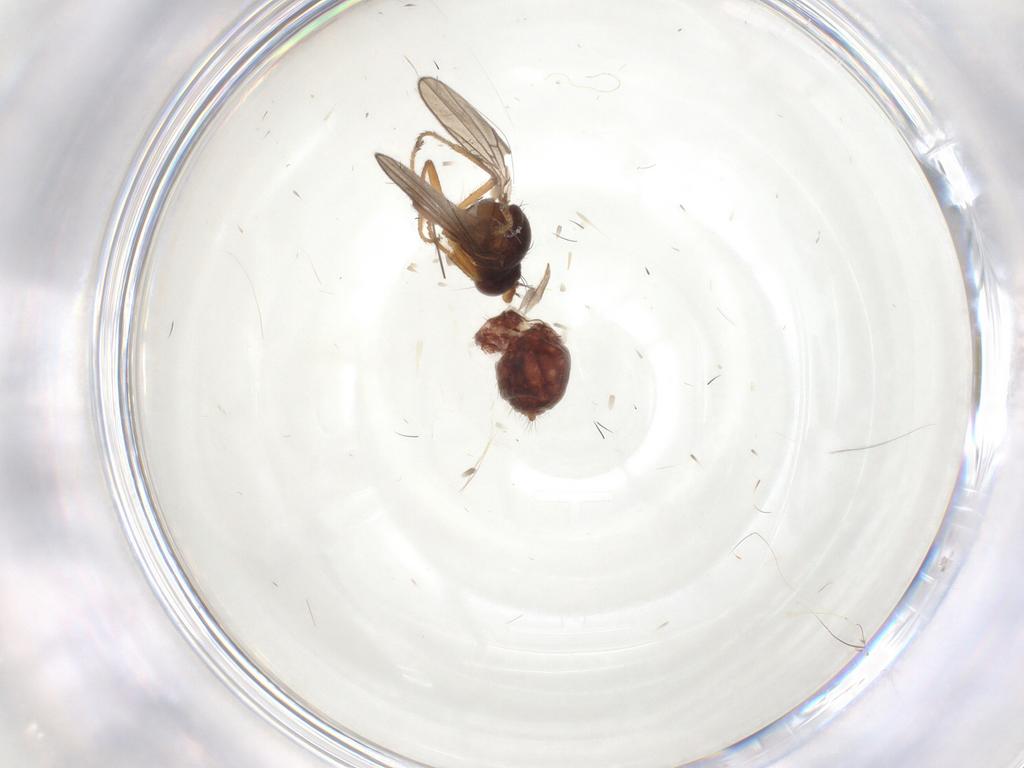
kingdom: Animalia
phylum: Arthropoda
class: Insecta
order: Diptera
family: Ephydridae
